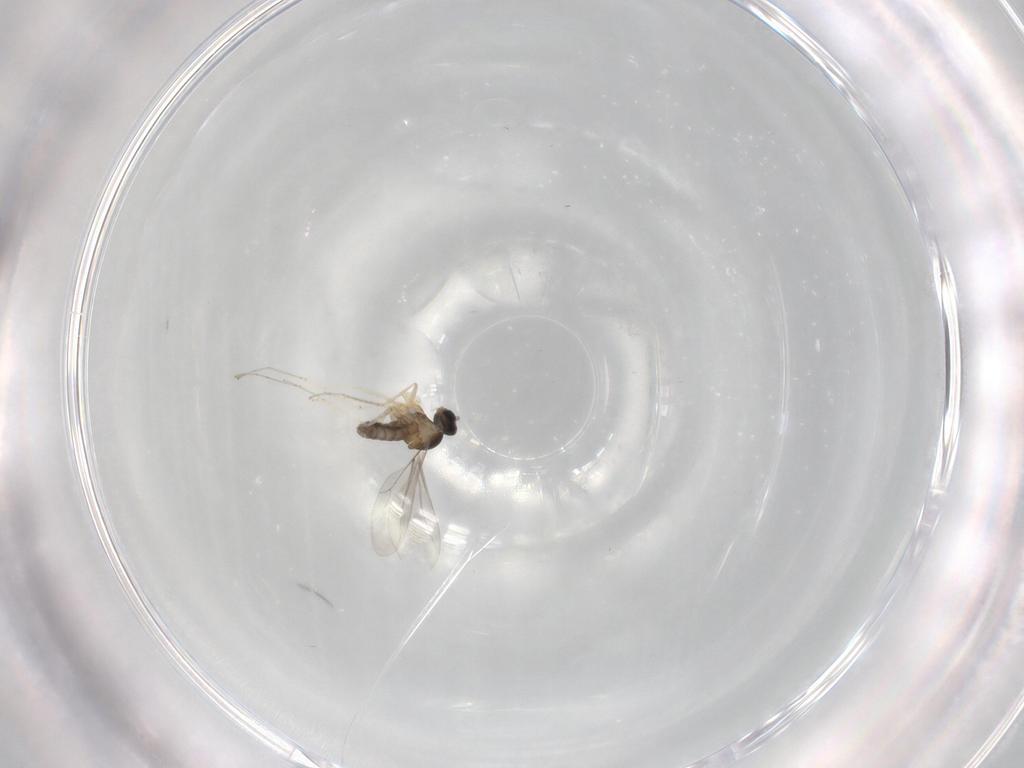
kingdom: Animalia
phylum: Arthropoda
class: Insecta
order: Diptera
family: Cecidomyiidae
